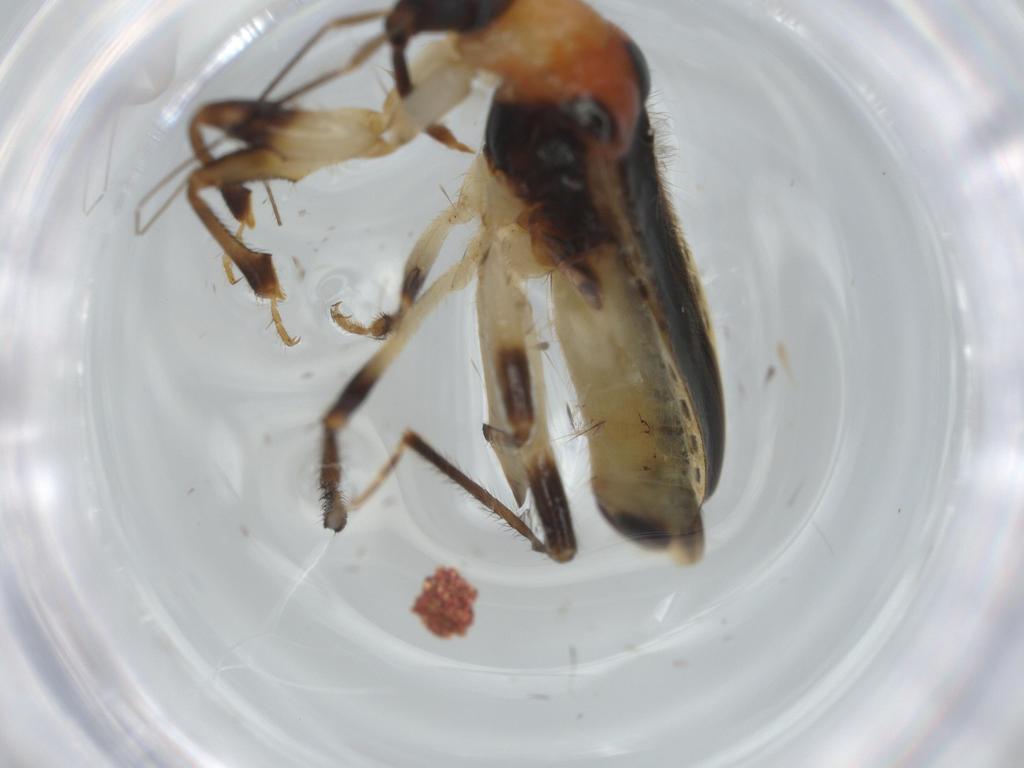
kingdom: Animalia
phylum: Arthropoda
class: Insecta
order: Hemiptera
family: Nabidae
